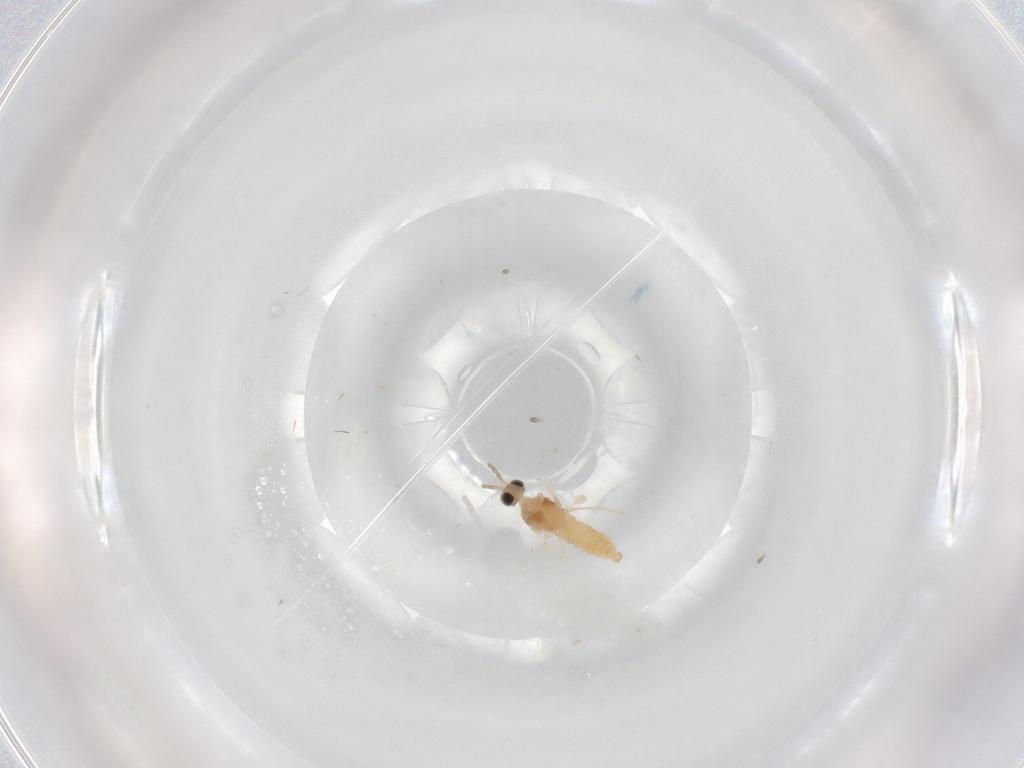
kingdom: Animalia
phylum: Arthropoda
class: Insecta
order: Diptera
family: Cecidomyiidae
